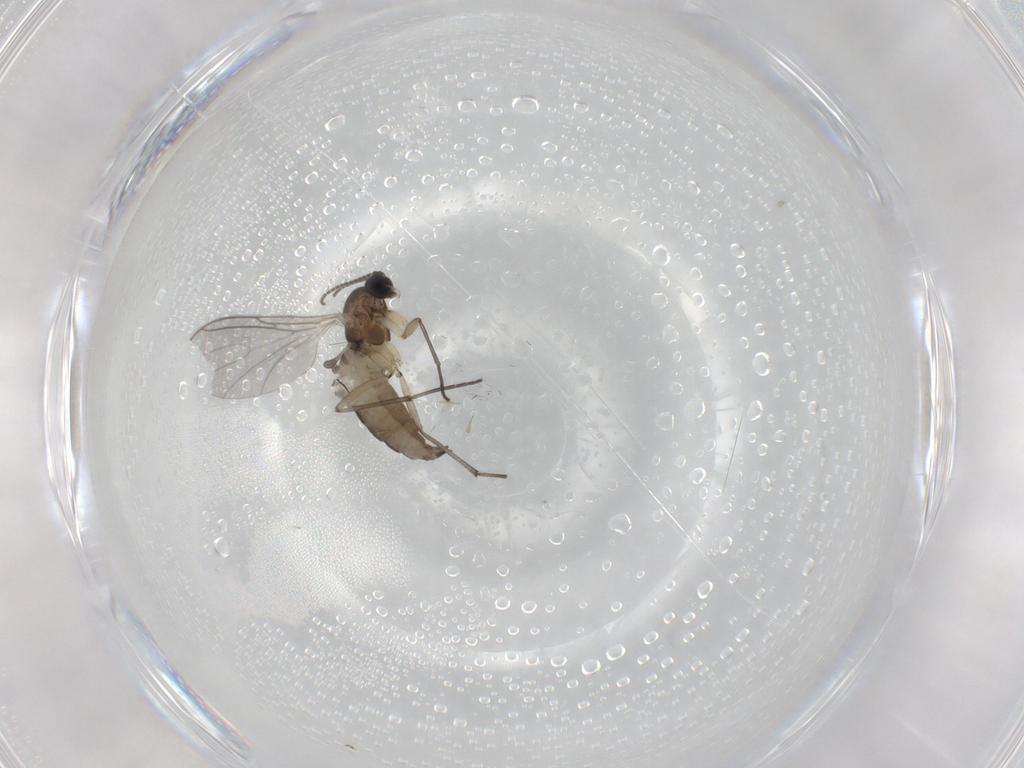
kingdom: Animalia
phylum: Arthropoda
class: Insecta
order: Diptera
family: Sciaridae
